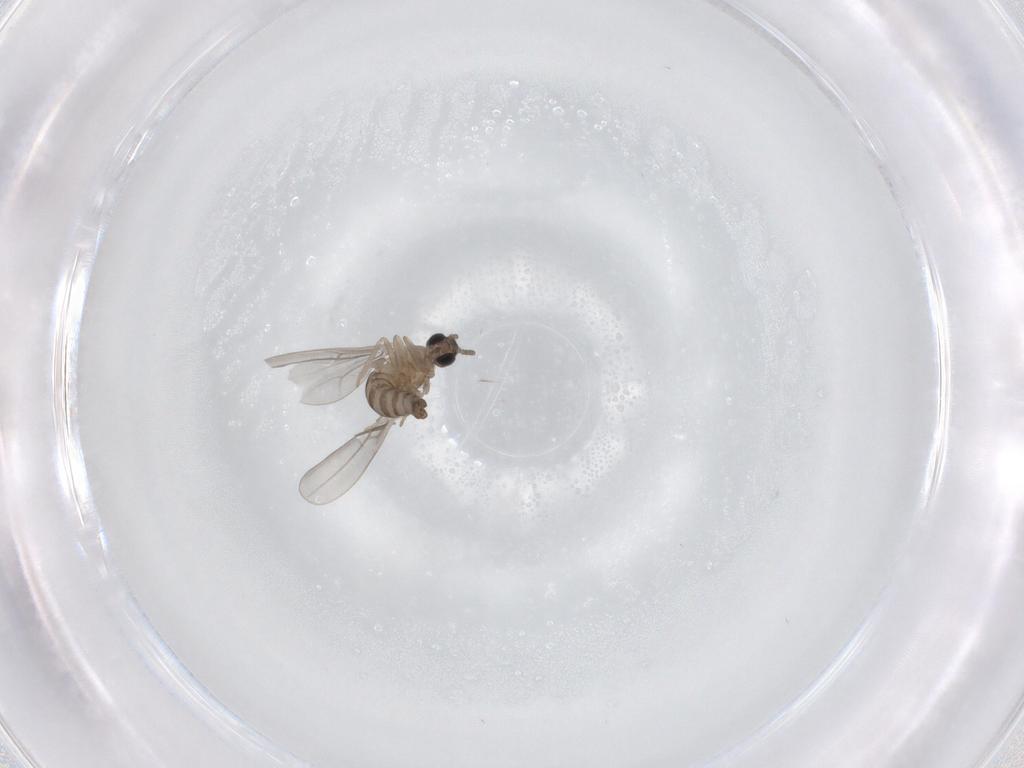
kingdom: Animalia
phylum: Arthropoda
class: Insecta
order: Diptera
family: Cecidomyiidae
